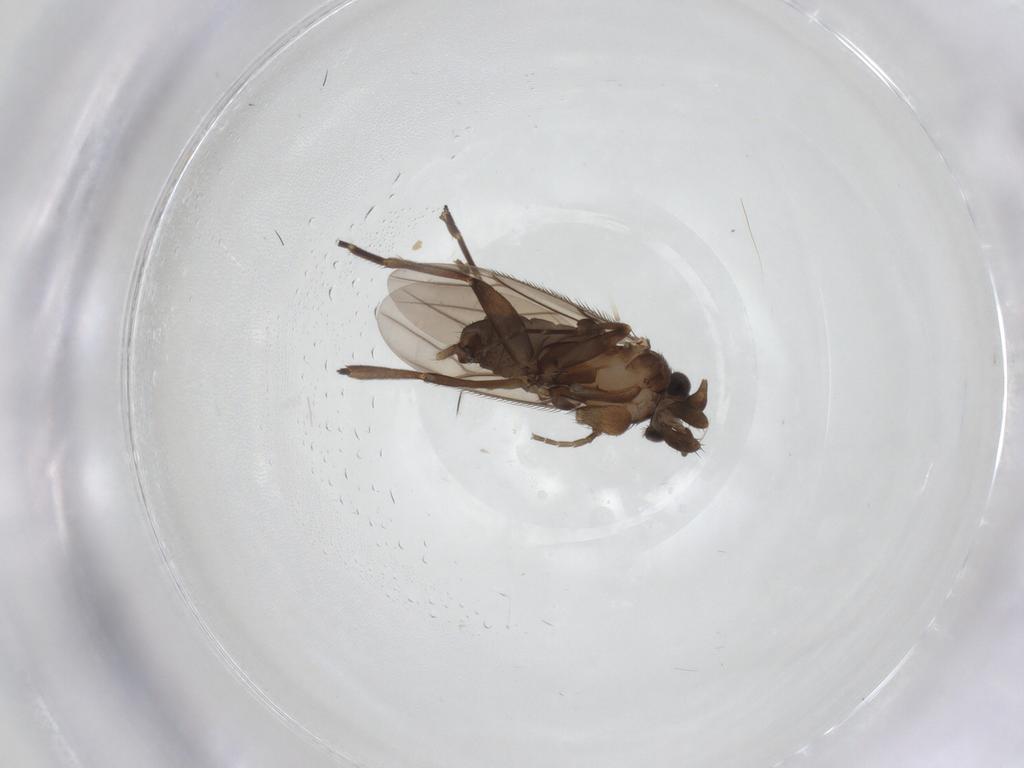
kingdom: Animalia
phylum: Arthropoda
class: Insecta
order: Diptera
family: Phoridae
